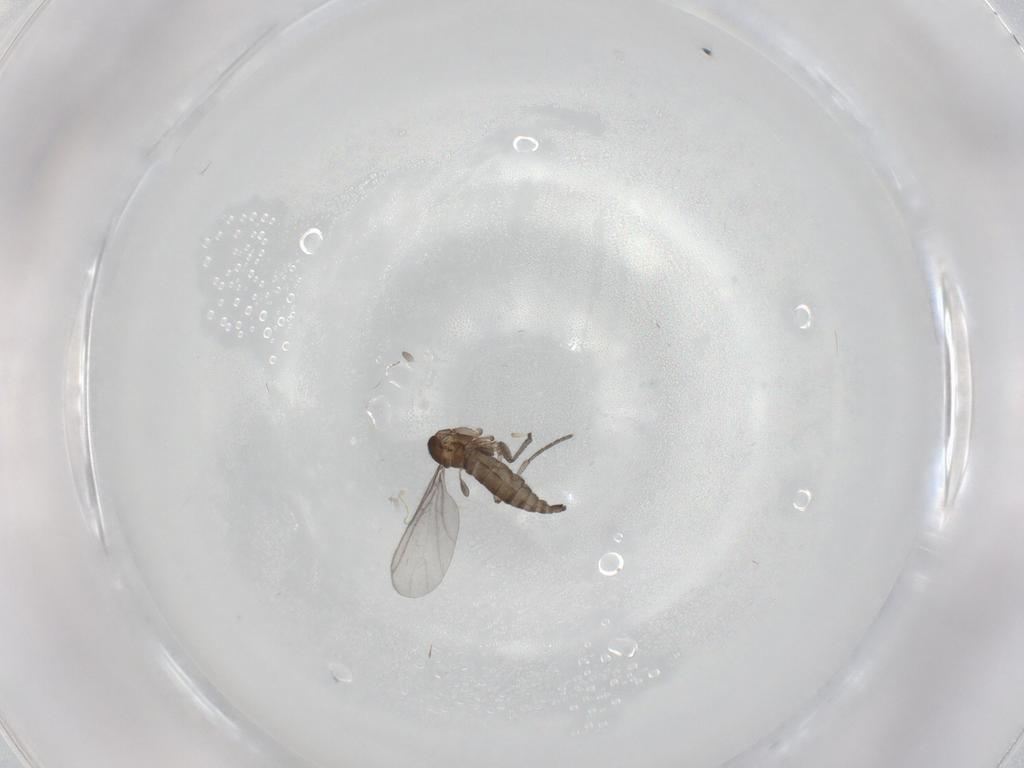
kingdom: Animalia
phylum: Arthropoda
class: Insecta
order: Diptera
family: Sciaridae
